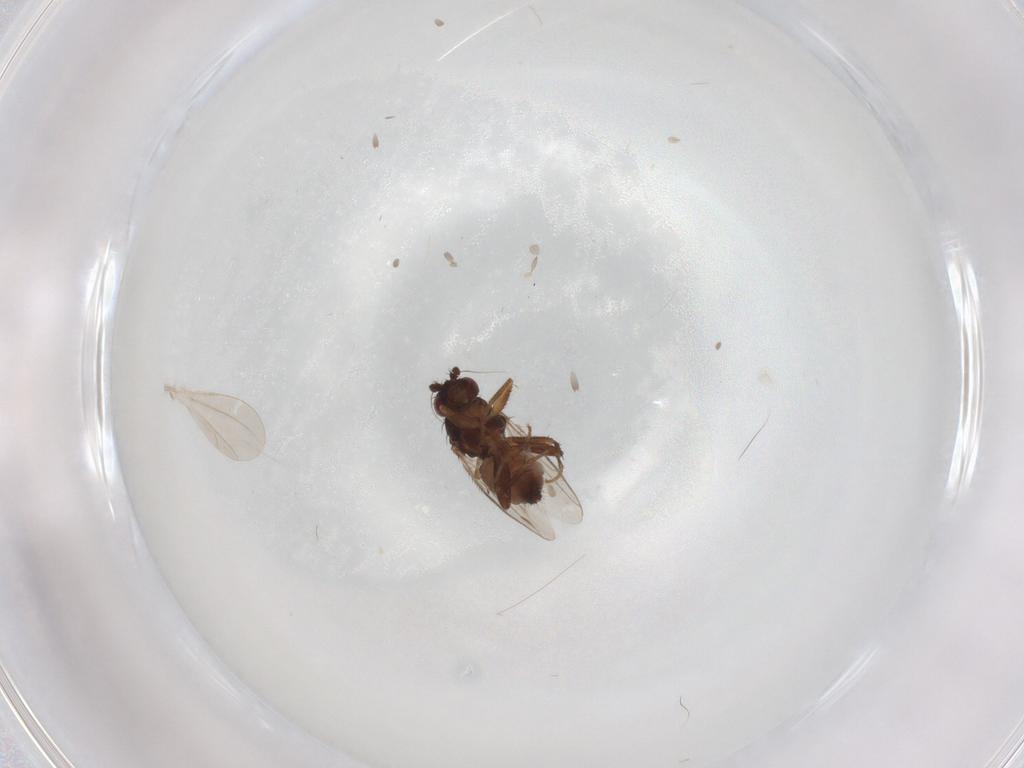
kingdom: Animalia
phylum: Arthropoda
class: Insecta
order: Diptera
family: Sphaeroceridae
